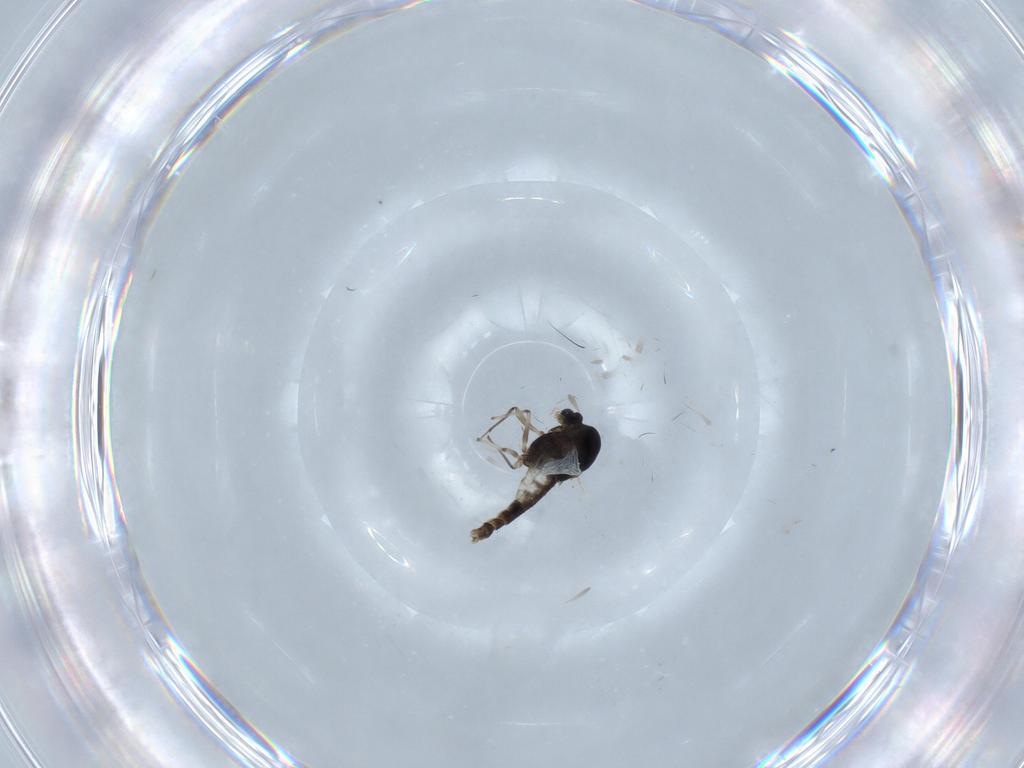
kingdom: Animalia
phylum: Arthropoda
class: Insecta
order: Diptera
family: Chironomidae
